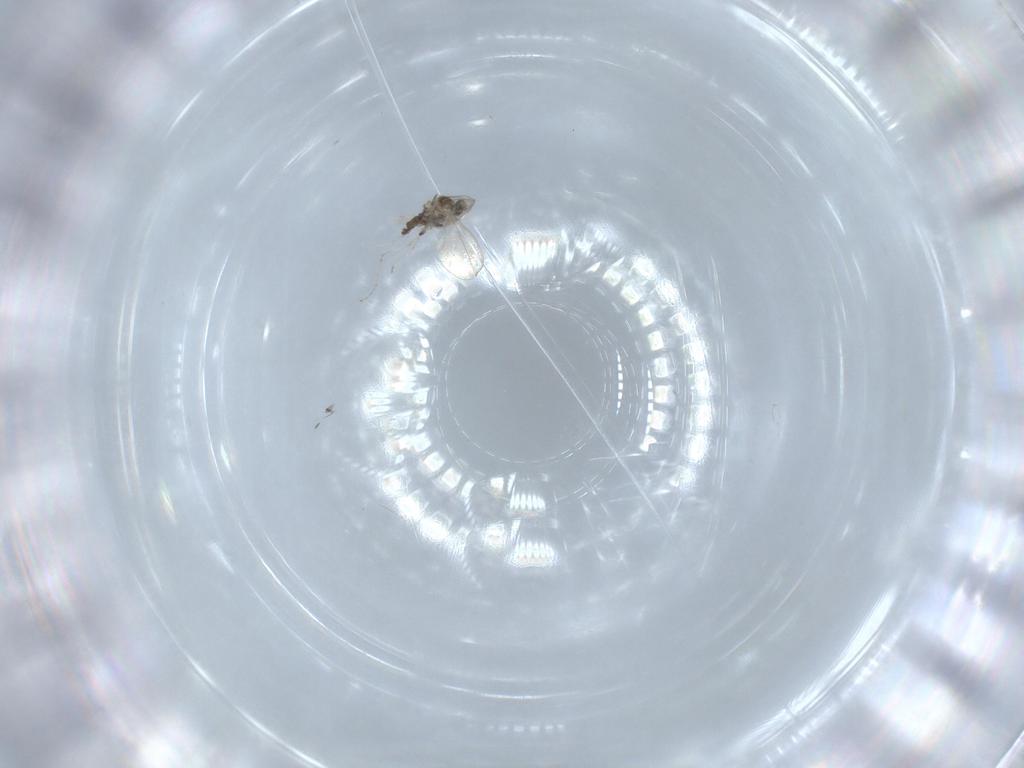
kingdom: Animalia
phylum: Arthropoda
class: Insecta
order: Diptera
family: Cecidomyiidae
